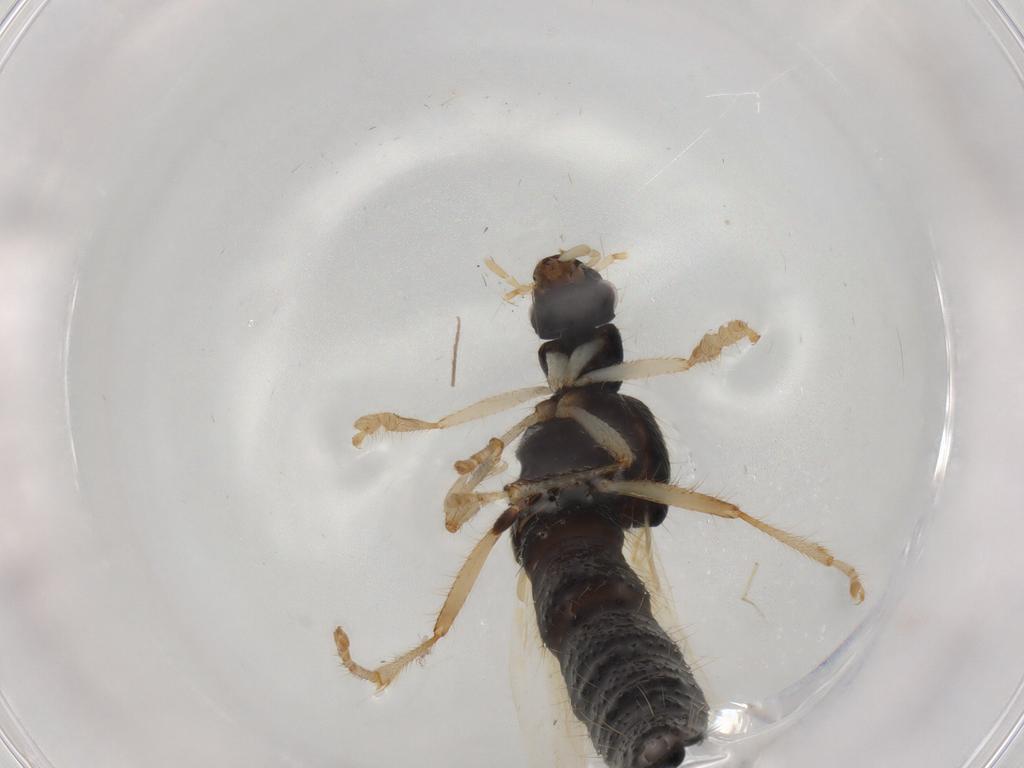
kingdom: Animalia
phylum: Arthropoda
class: Insecta
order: Coleoptera
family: Staphylinidae
